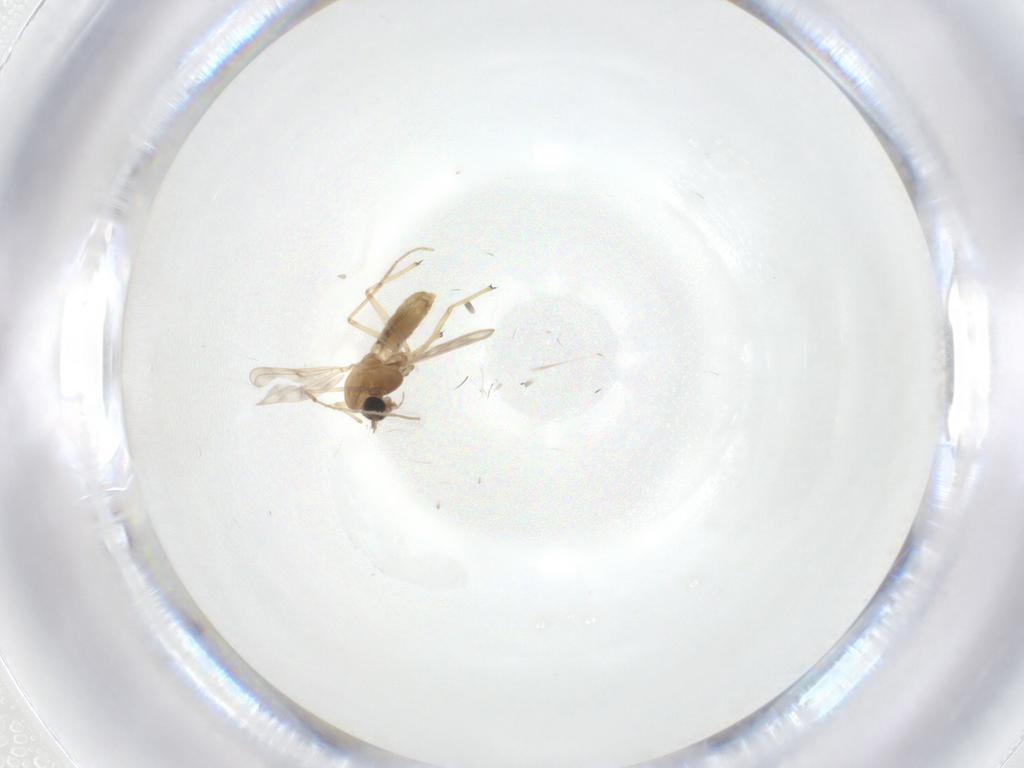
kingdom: Animalia
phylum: Arthropoda
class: Insecta
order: Diptera
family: Chironomidae
